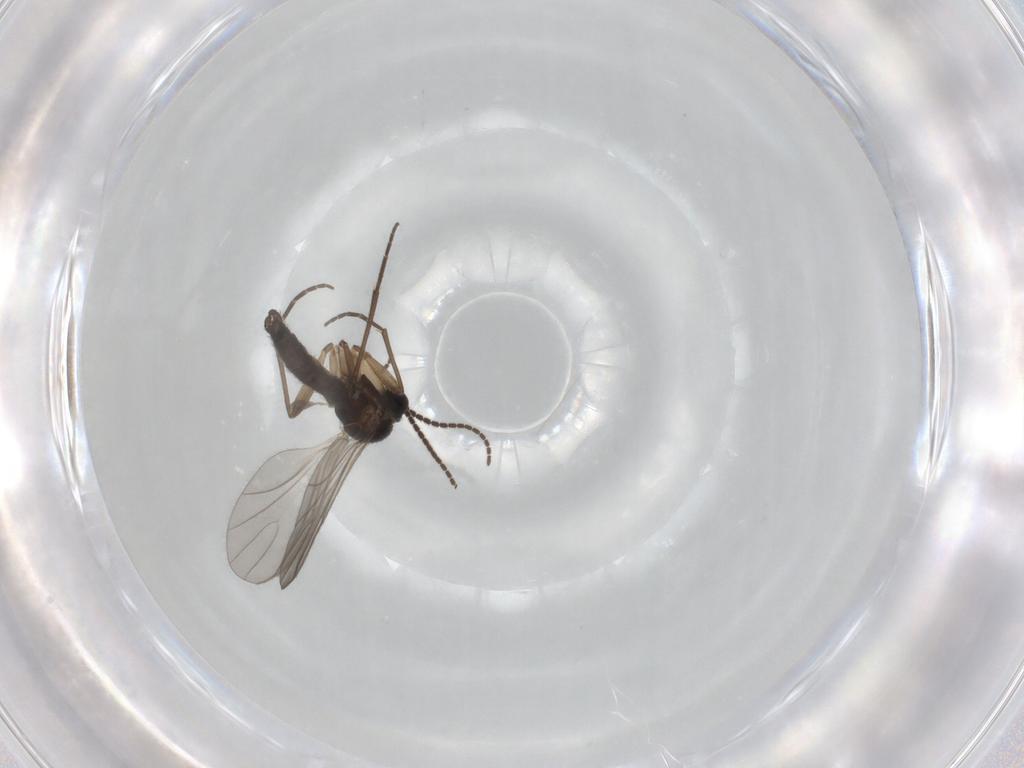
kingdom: Animalia
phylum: Arthropoda
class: Insecta
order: Diptera
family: Sciaridae
